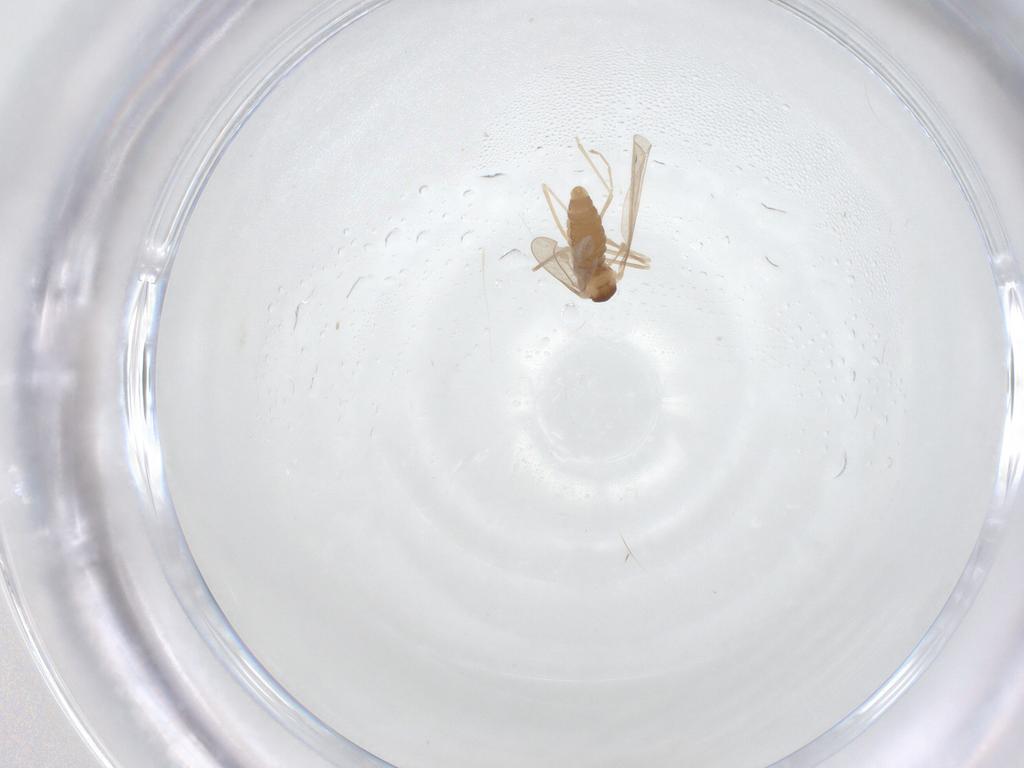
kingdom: Animalia
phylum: Arthropoda
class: Insecta
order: Diptera
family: Cecidomyiidae
